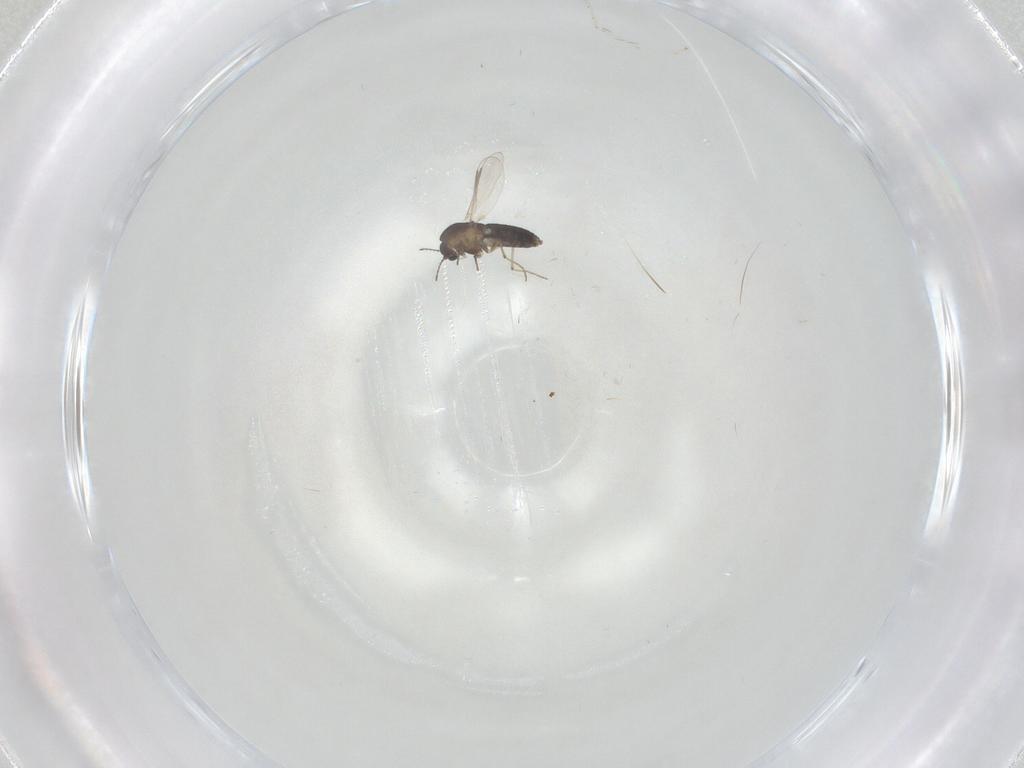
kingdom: Animalia
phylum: Arthropoda
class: Insecta
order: Diptera
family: Chironomidae
